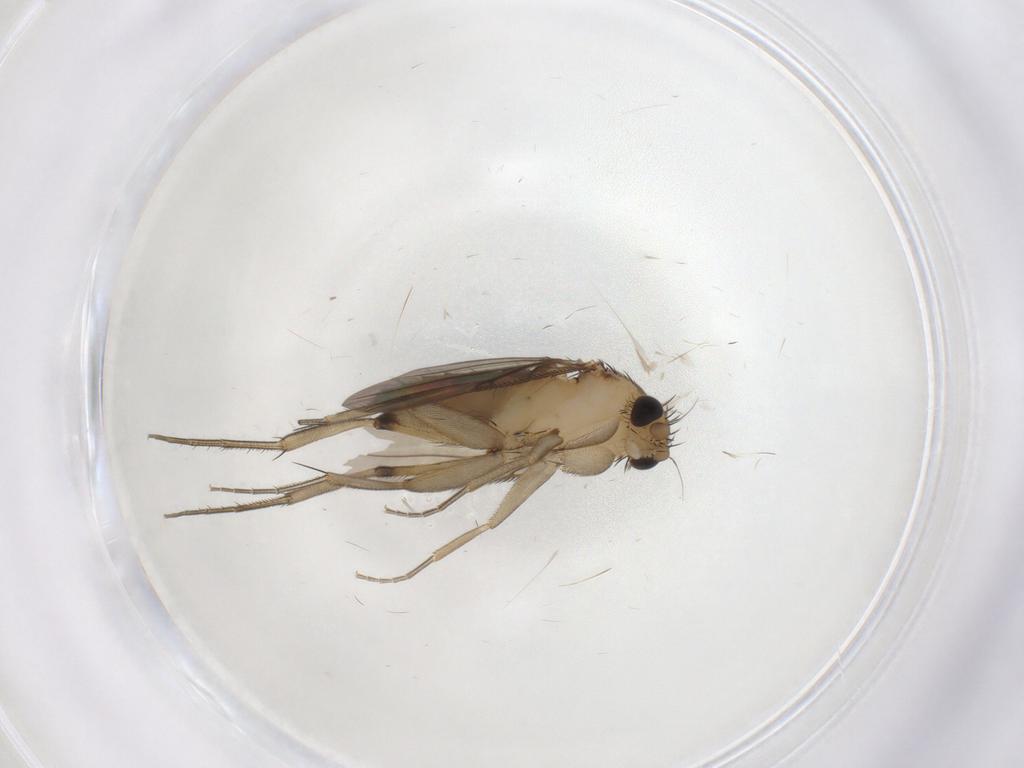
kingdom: Animalia
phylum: Arthropoda
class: Insecta
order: Diptera
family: Phoridae
